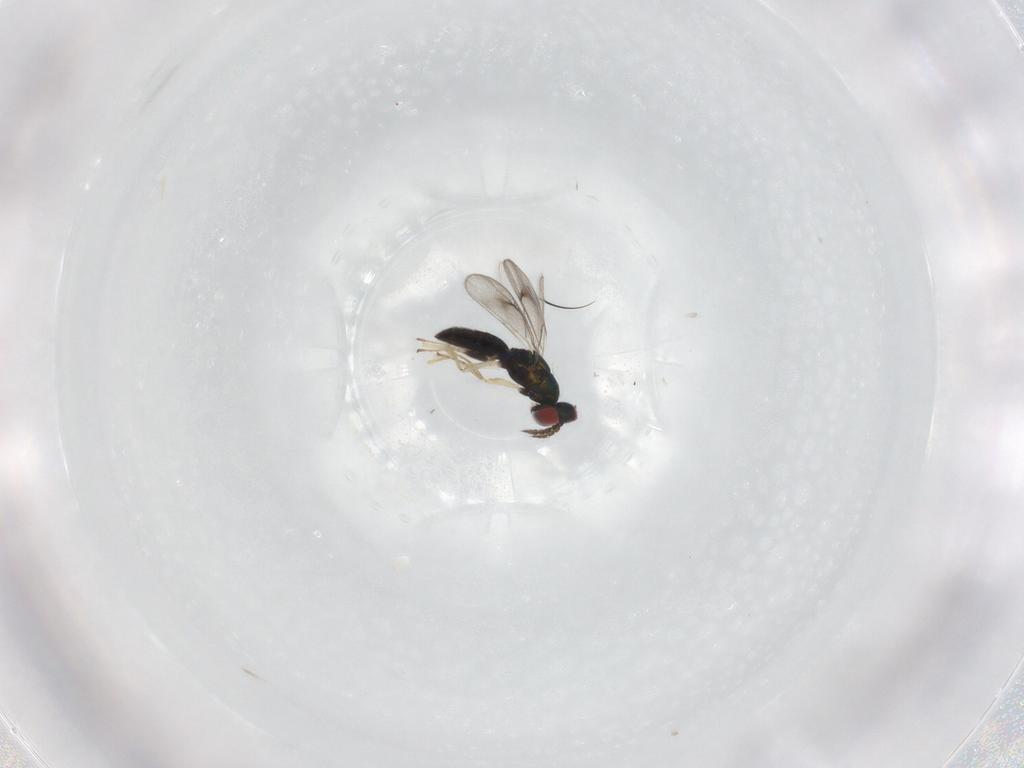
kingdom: Animalia
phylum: Arthropoda
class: Insecta
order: Hymenoptera
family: Eulophidae
